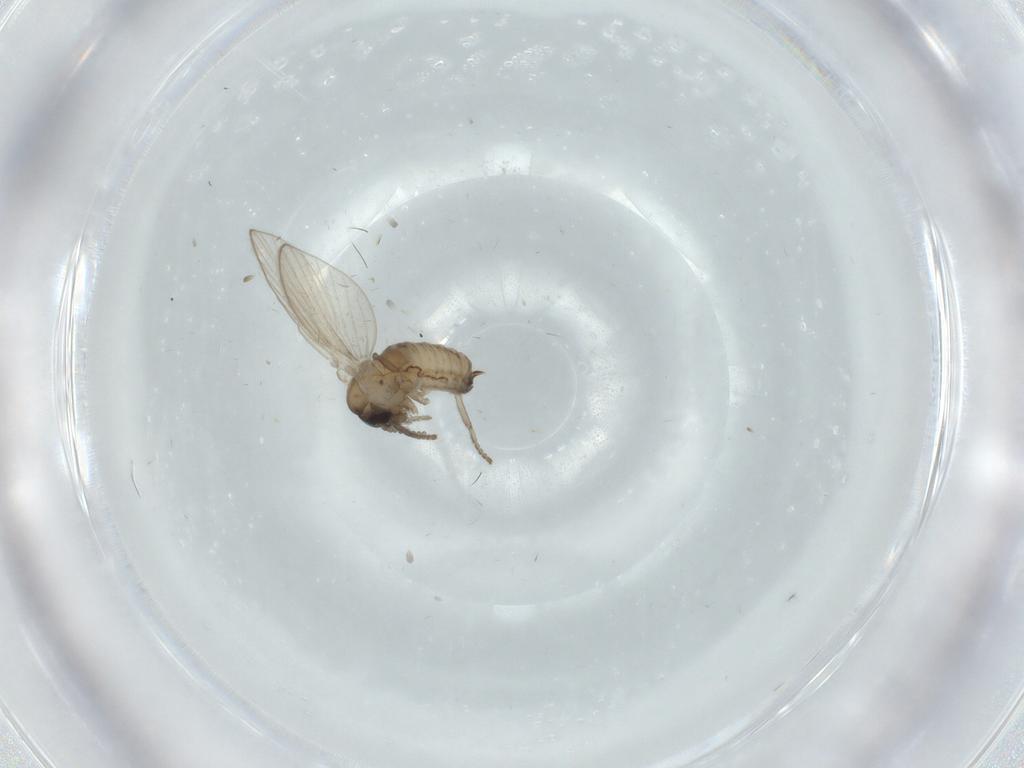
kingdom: Animalia
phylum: Arthropoda
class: Insecta
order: Diptera
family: Psychodidae
